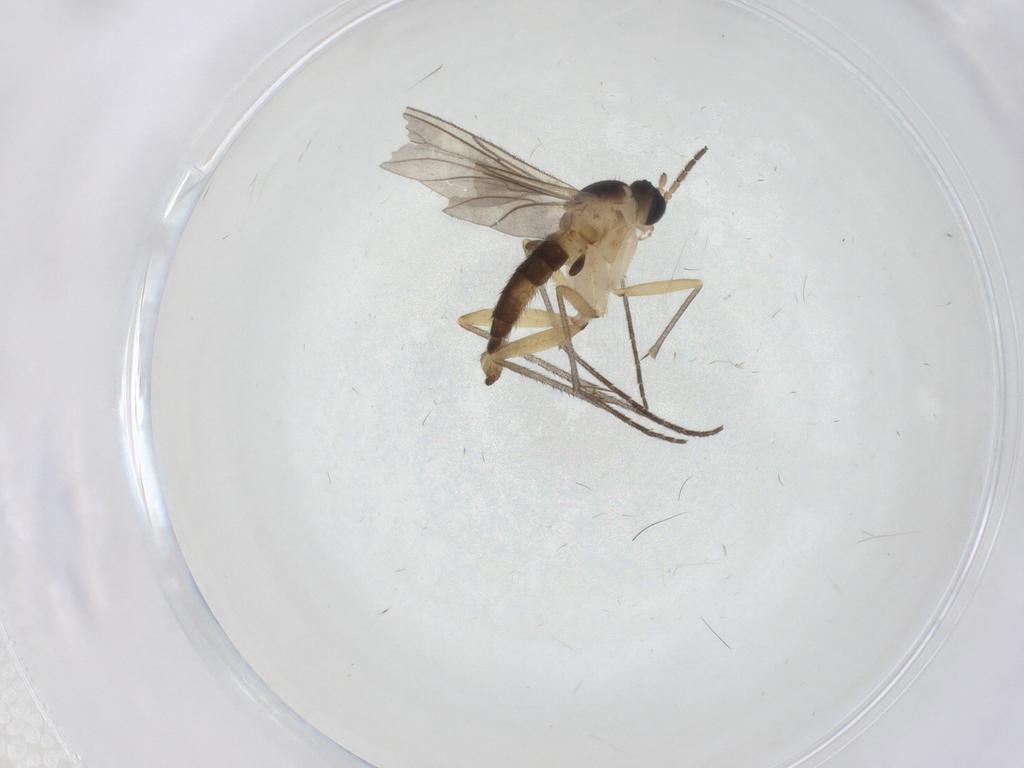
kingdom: Animalia
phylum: Arthropoda
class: Insecta
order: Diptera
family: Sciaridae
